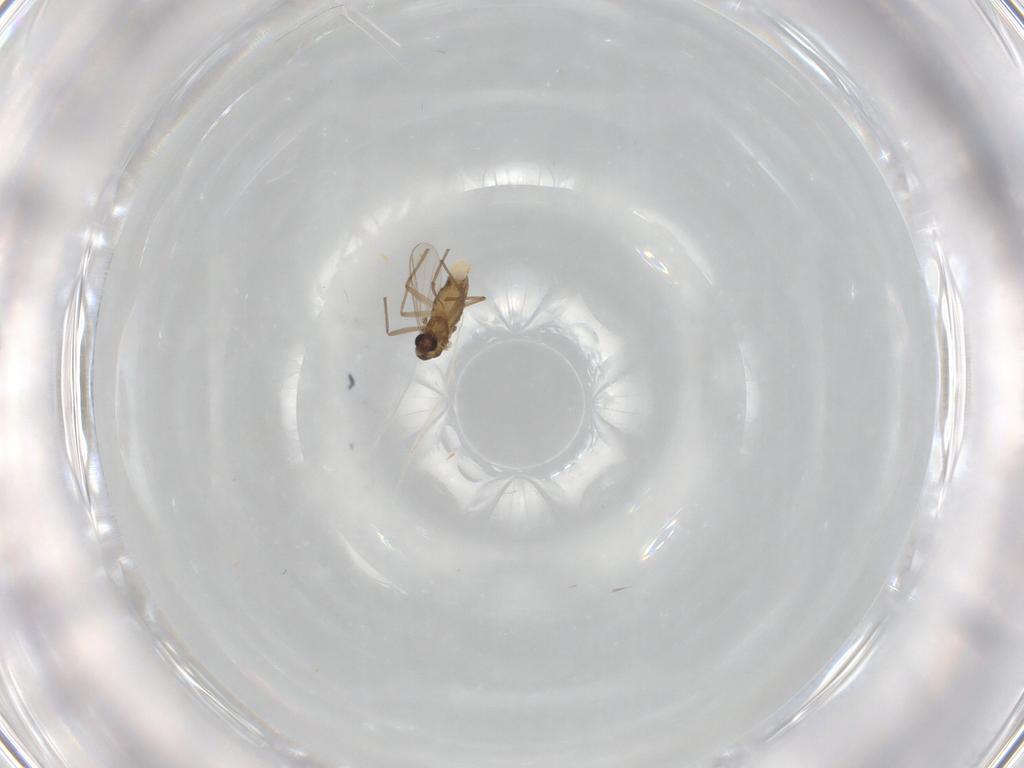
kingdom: Animalia
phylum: Arthropoda
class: Insecta
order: Diptera
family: Chironomidae
